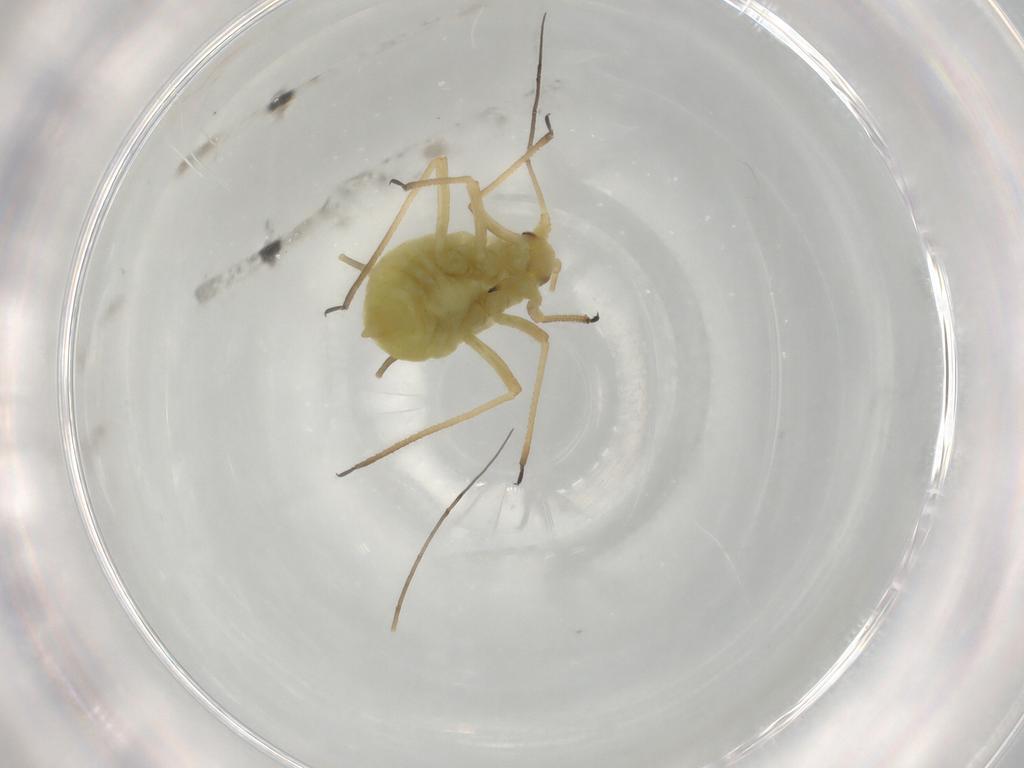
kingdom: Animalia
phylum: Arthropoda
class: Insecta
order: Hemiptera
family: Aphididae
